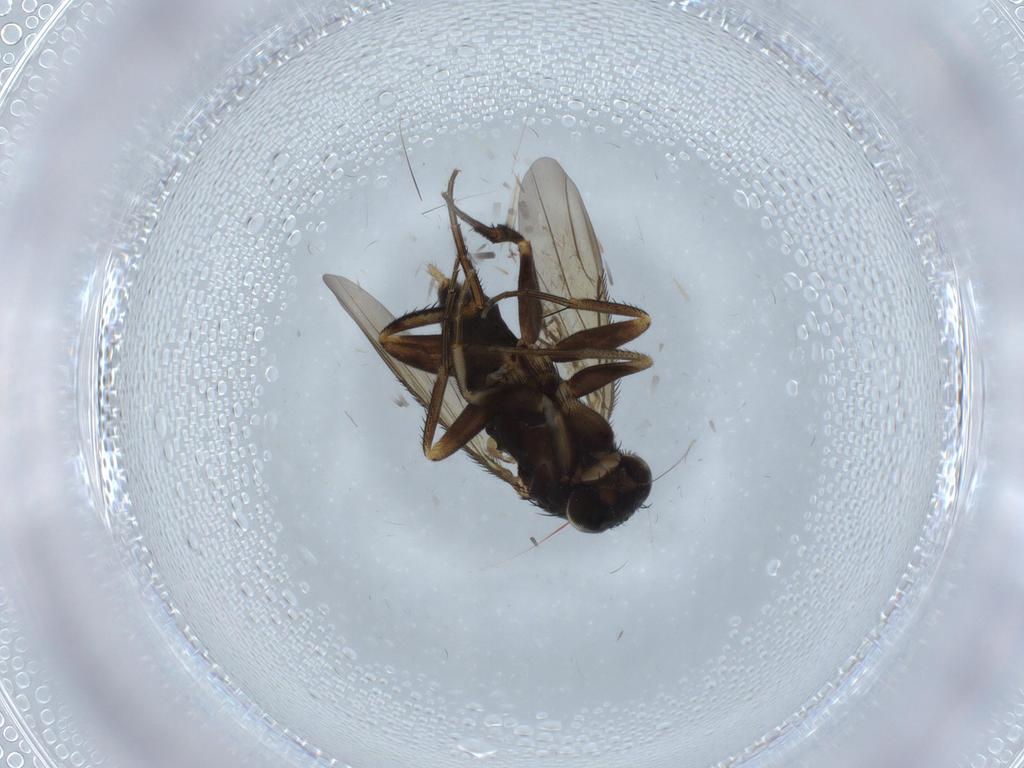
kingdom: Animalia
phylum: Arthropoda
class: Insecta
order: Diptera
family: Phoridae
